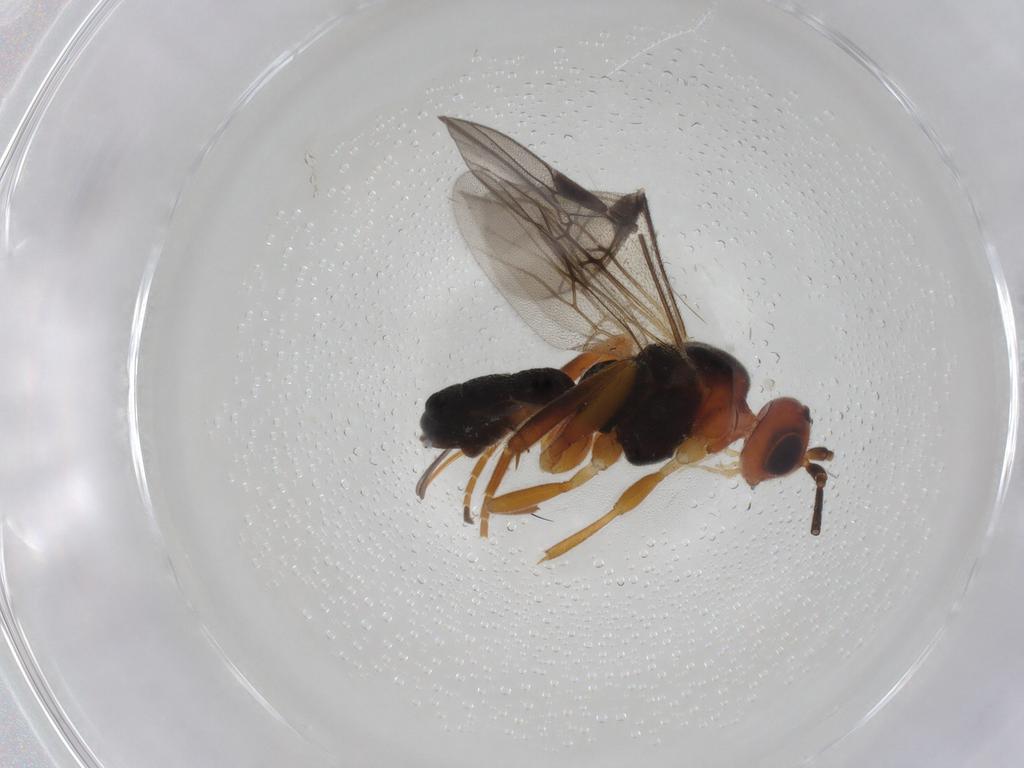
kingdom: Animalia
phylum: Arthropoda
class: Insecta
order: Hymenoptera
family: Braconidae
